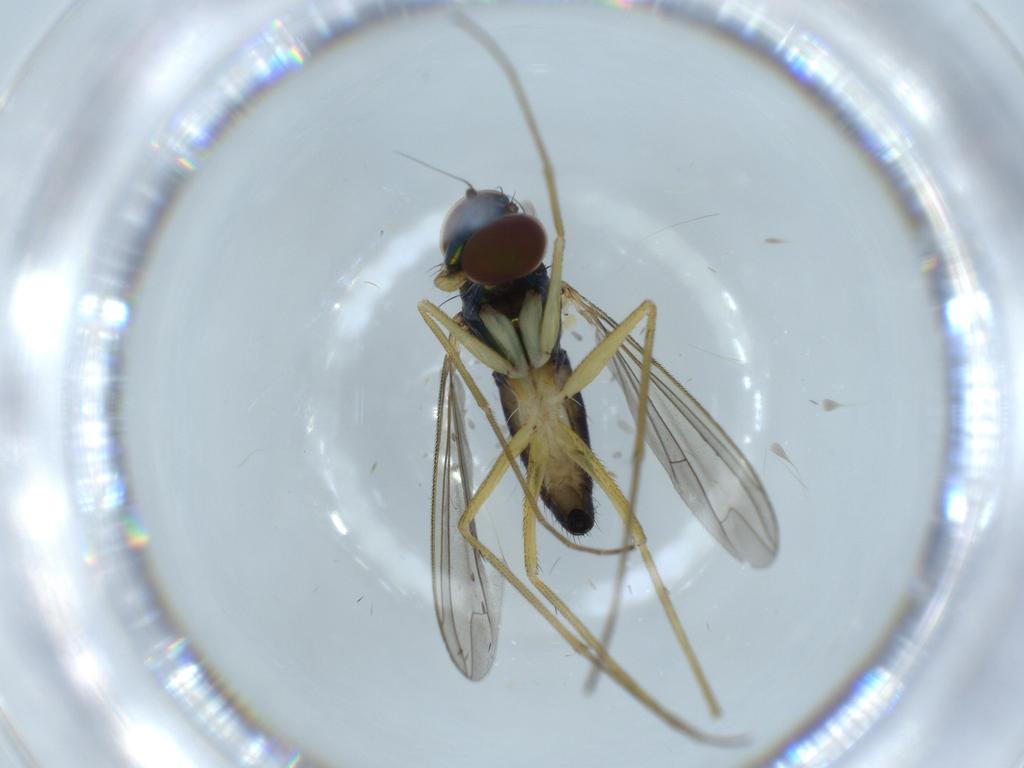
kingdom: Animalia
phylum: Arthropoda
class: Insecta
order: Diptera
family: Dolichopodidae
